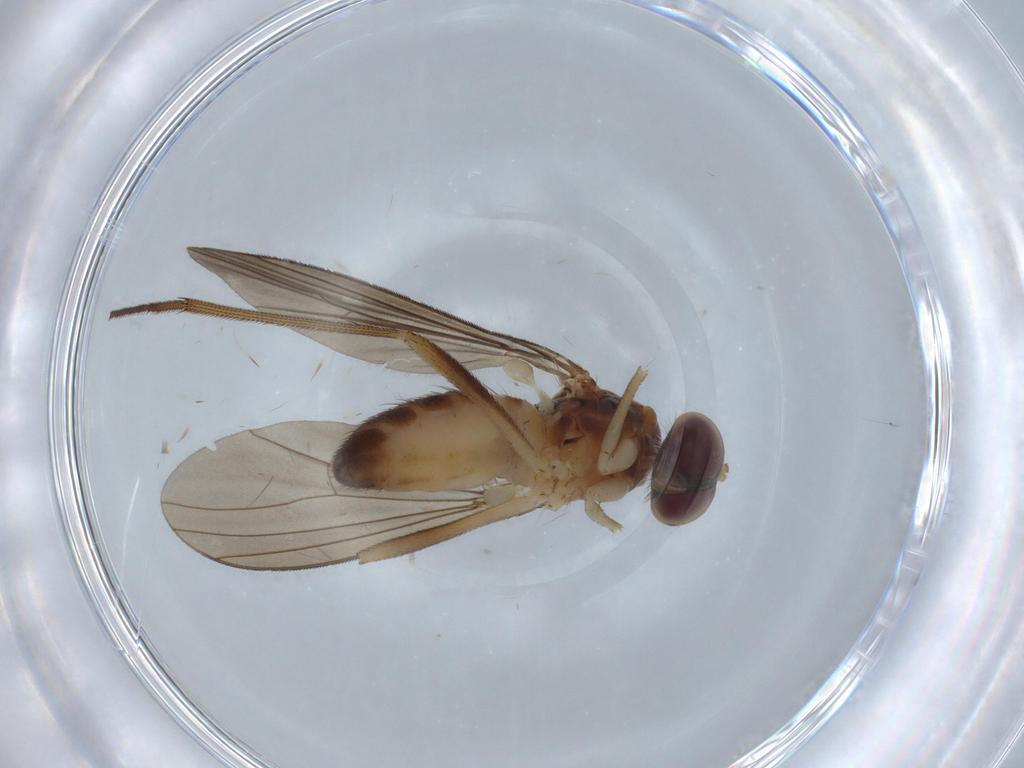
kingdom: Animalia
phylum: Arthropoda
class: Insecta
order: Diptera
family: Dolichopodidae
